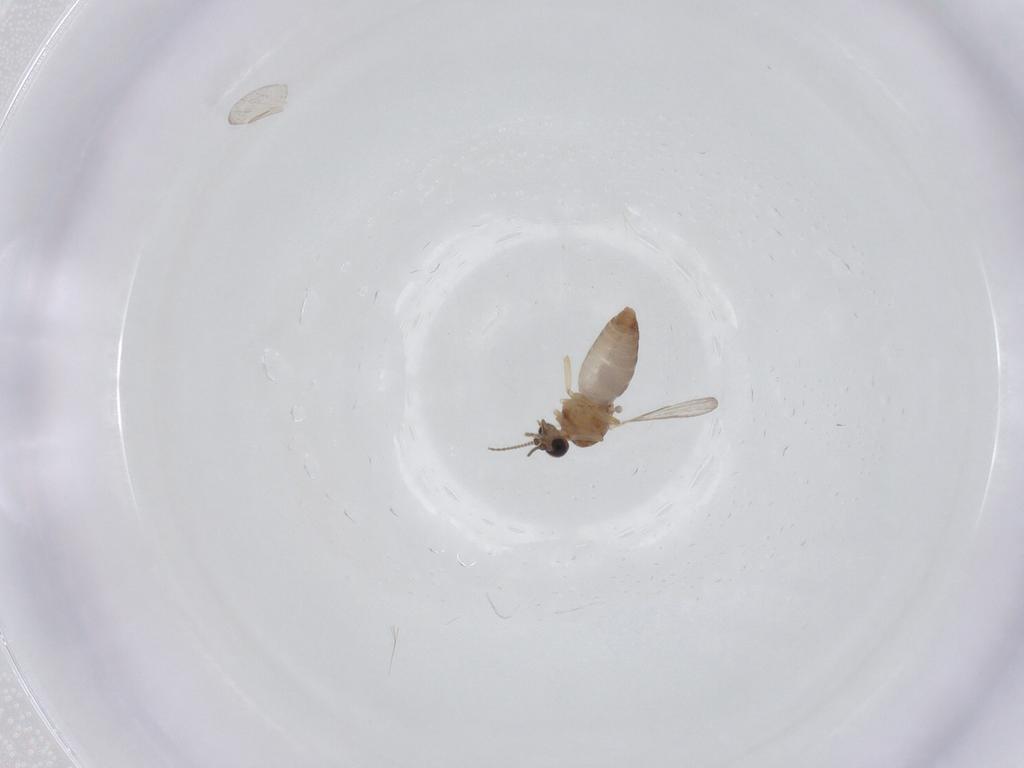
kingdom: Animalia
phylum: Arthropoda
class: Insecta
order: Diptera
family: Ceratopogonidae
